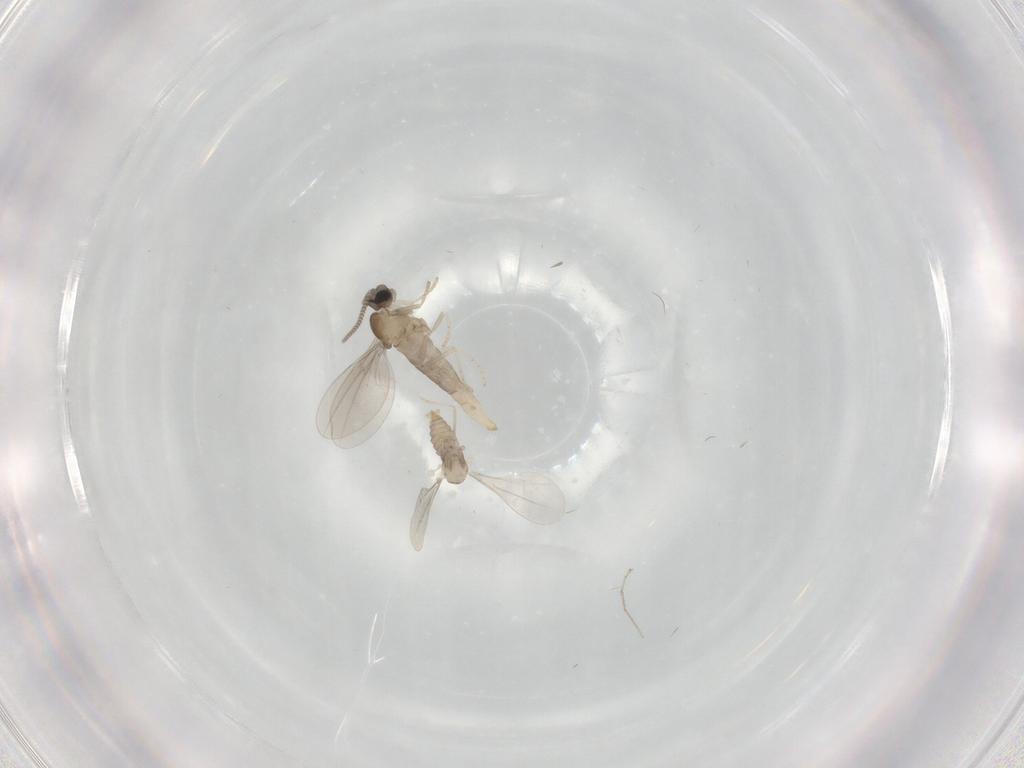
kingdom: Animalia
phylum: Arthropoda
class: Insecta
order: Diptera
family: Cecidomyiidae
